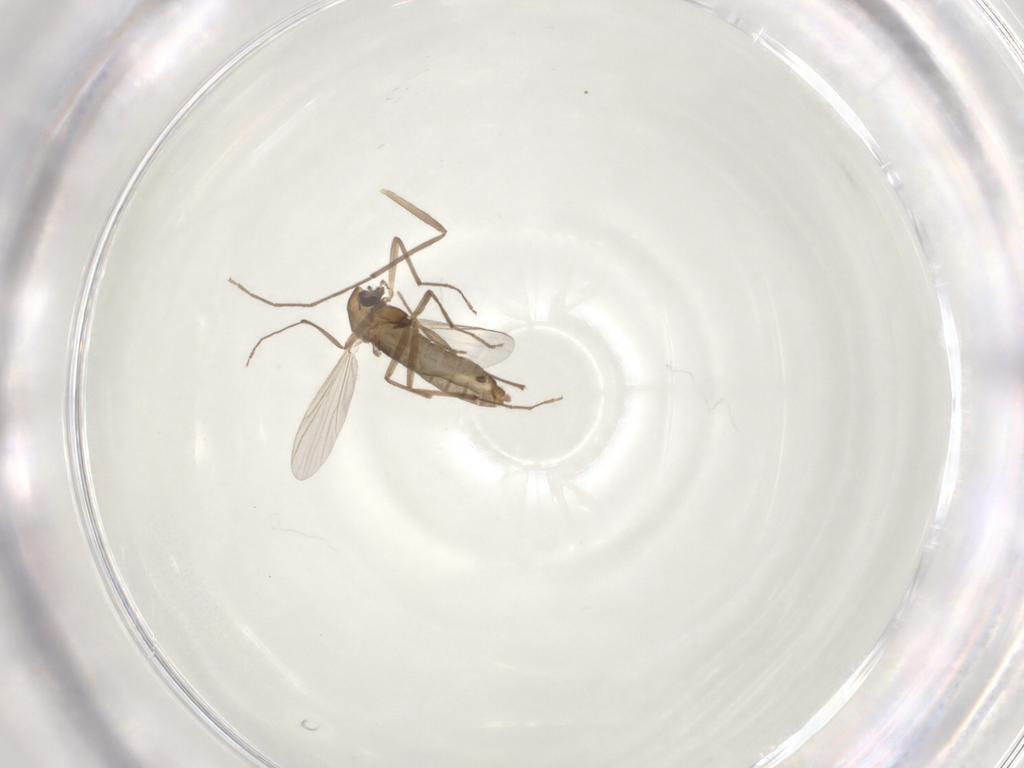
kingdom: Animalia
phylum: Arthropoda
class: Insecta
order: Diptera
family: Chironomidae
